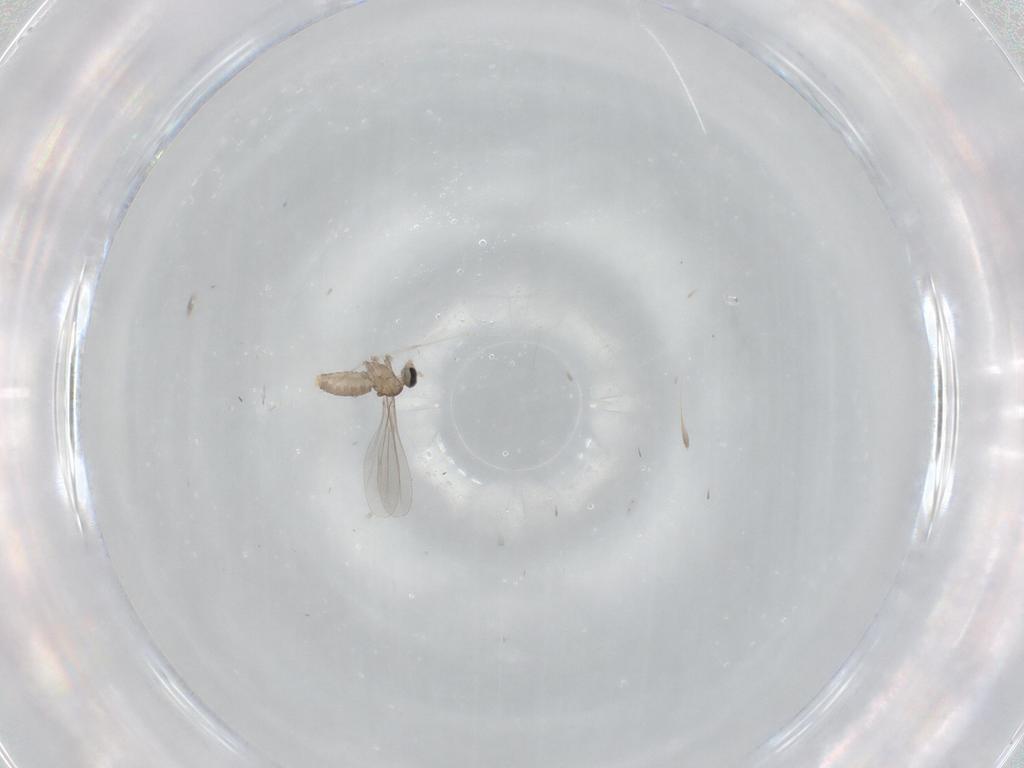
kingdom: Animalia
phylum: Arthropoda
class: Insecta
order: Diptera
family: Cecidomyiidae
